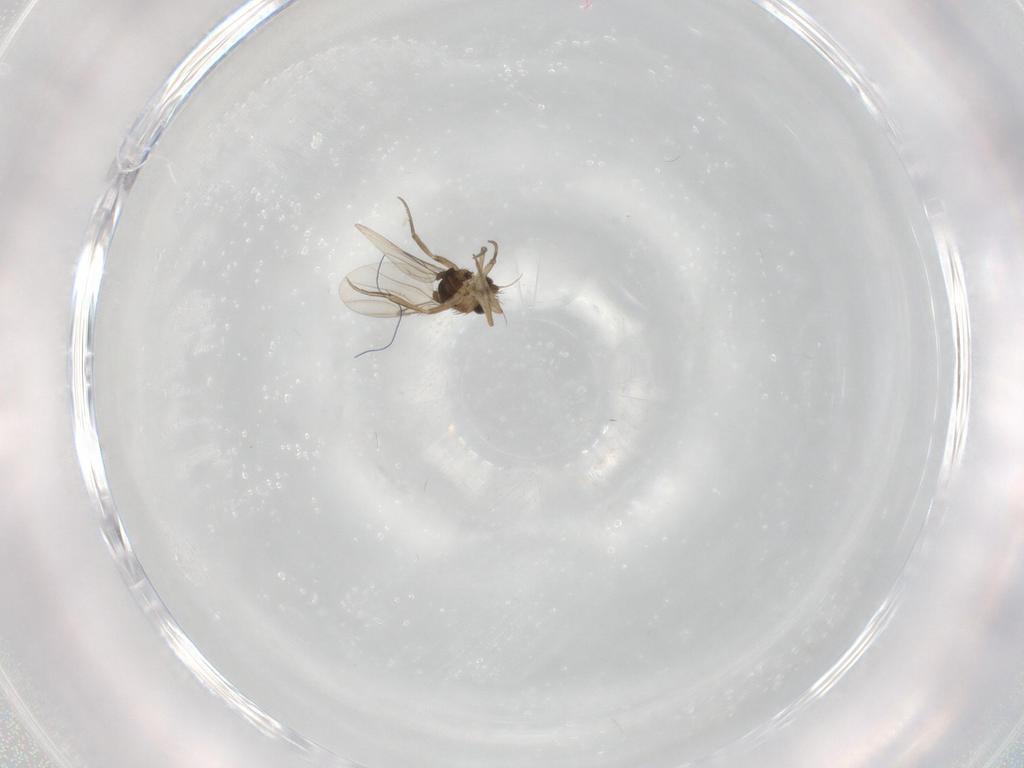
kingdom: Animalia
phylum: Arthropoda
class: Insecta
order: Diptera
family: Phoridae
